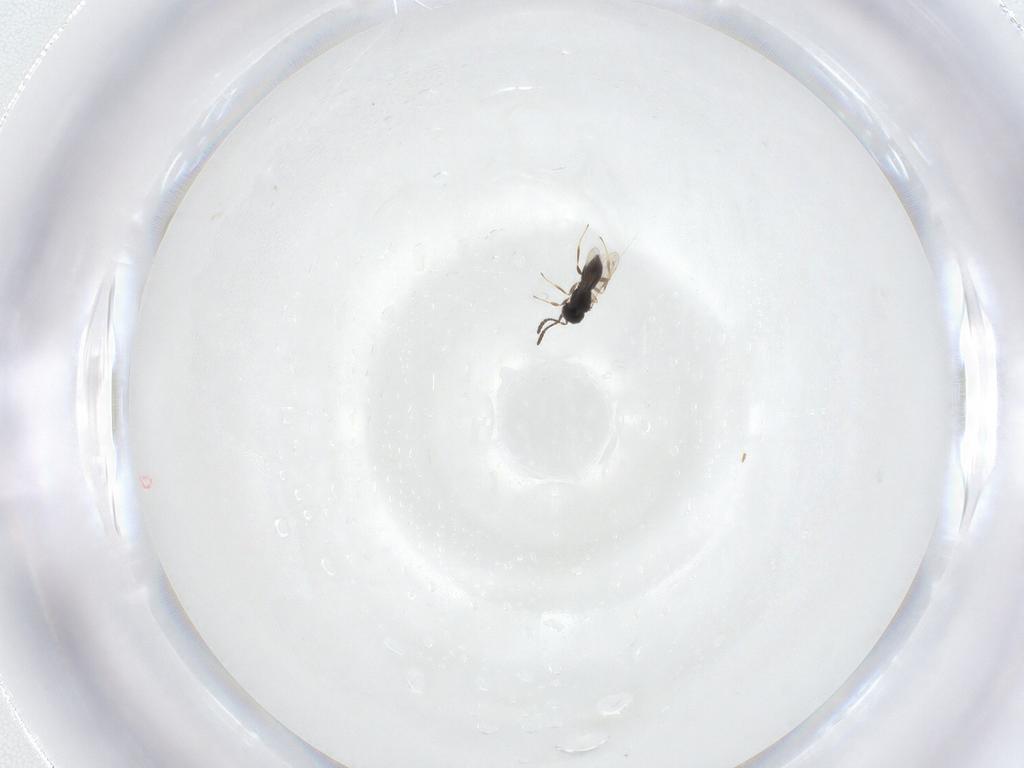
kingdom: Animalia
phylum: Arthropoda
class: Insecta
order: Hymenoptera
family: Scelionidae
